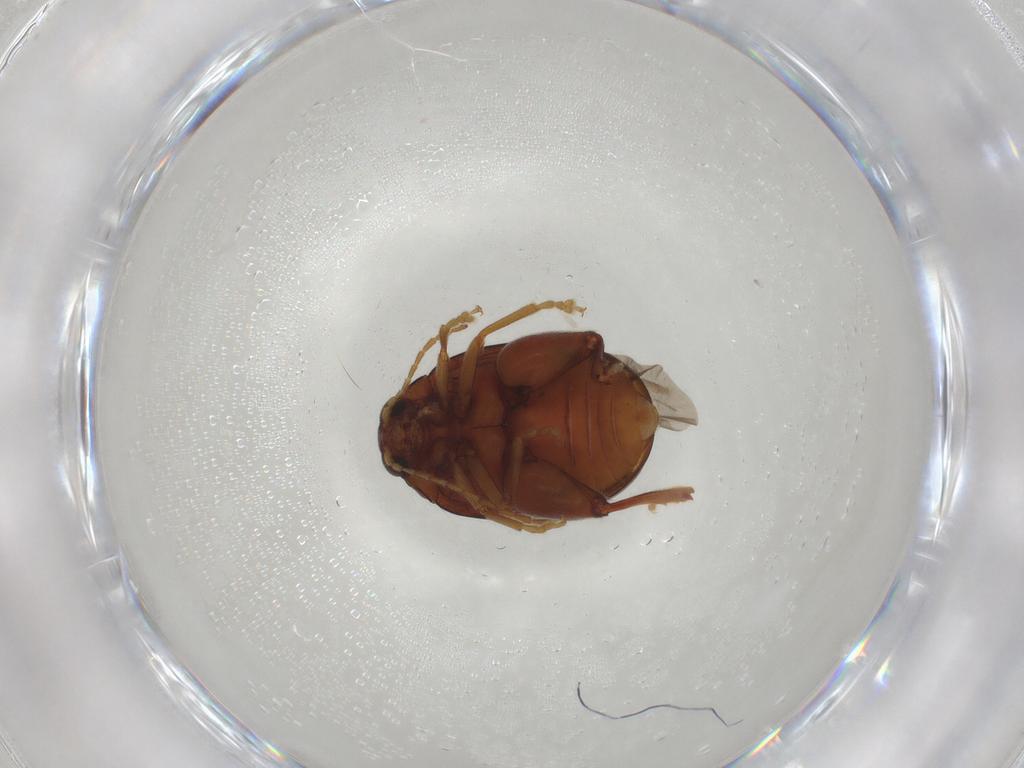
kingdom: Animalia
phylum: Arthropoda
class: Insecta
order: Coleoptera
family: Chrysomelidae
